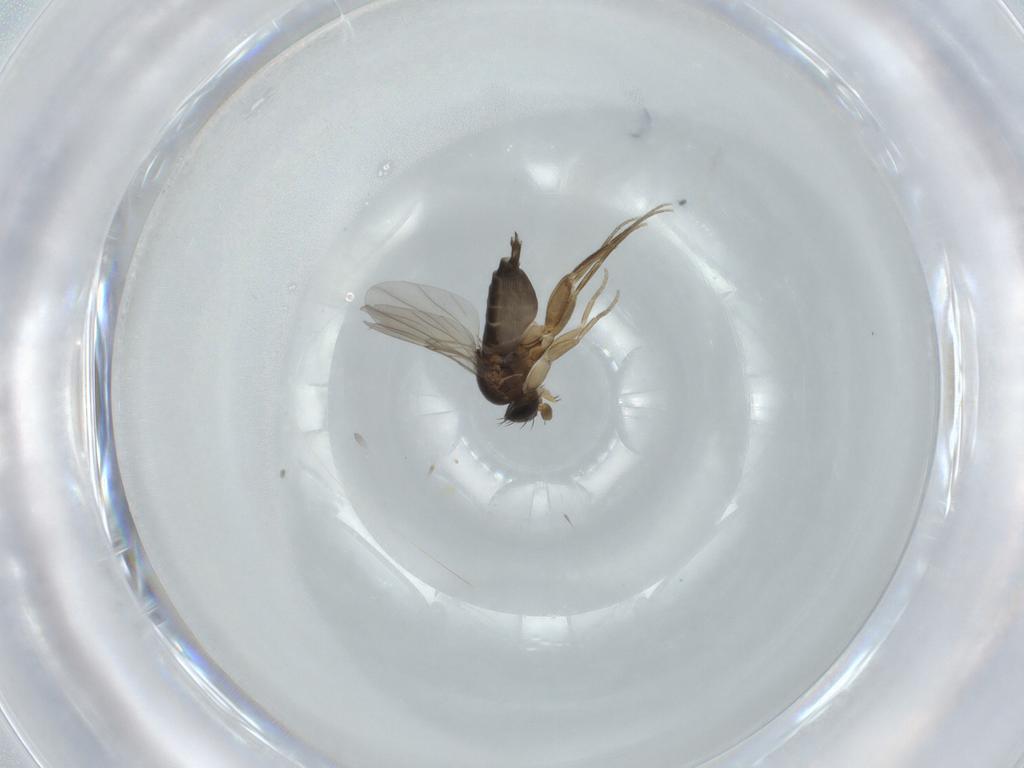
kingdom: Animalia
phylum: Arthropoda
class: Insecta
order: Diptera
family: Phoridae
